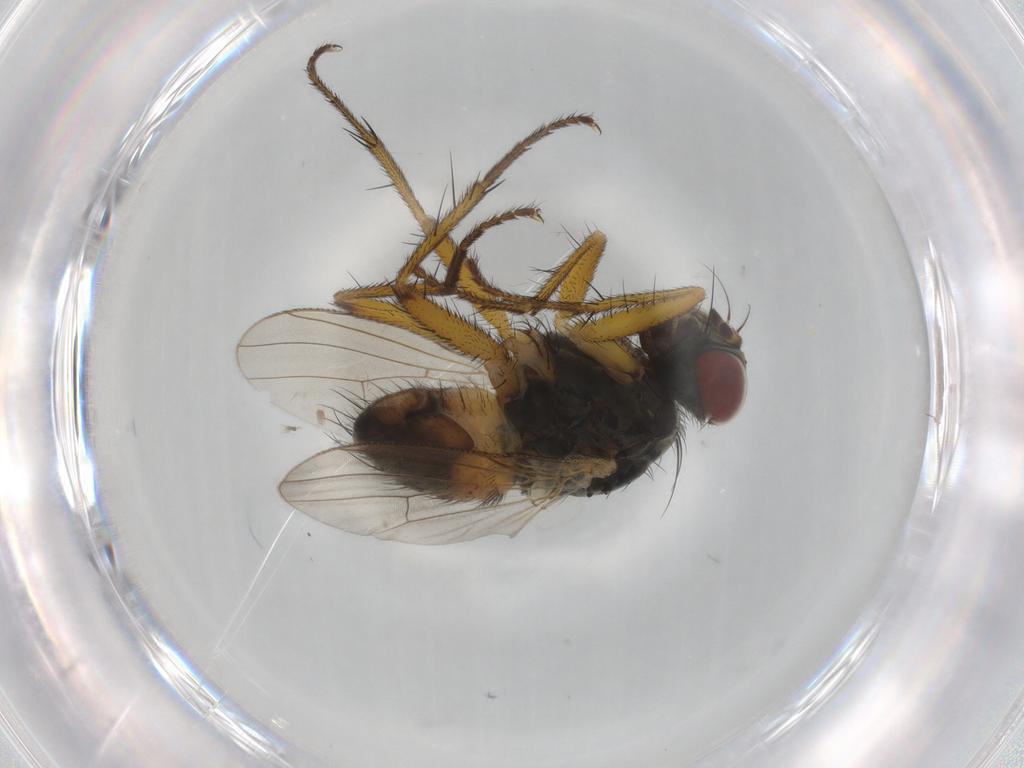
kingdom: Animalia
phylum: Arthropoda
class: Insecta
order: Diptera
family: Muscidae
